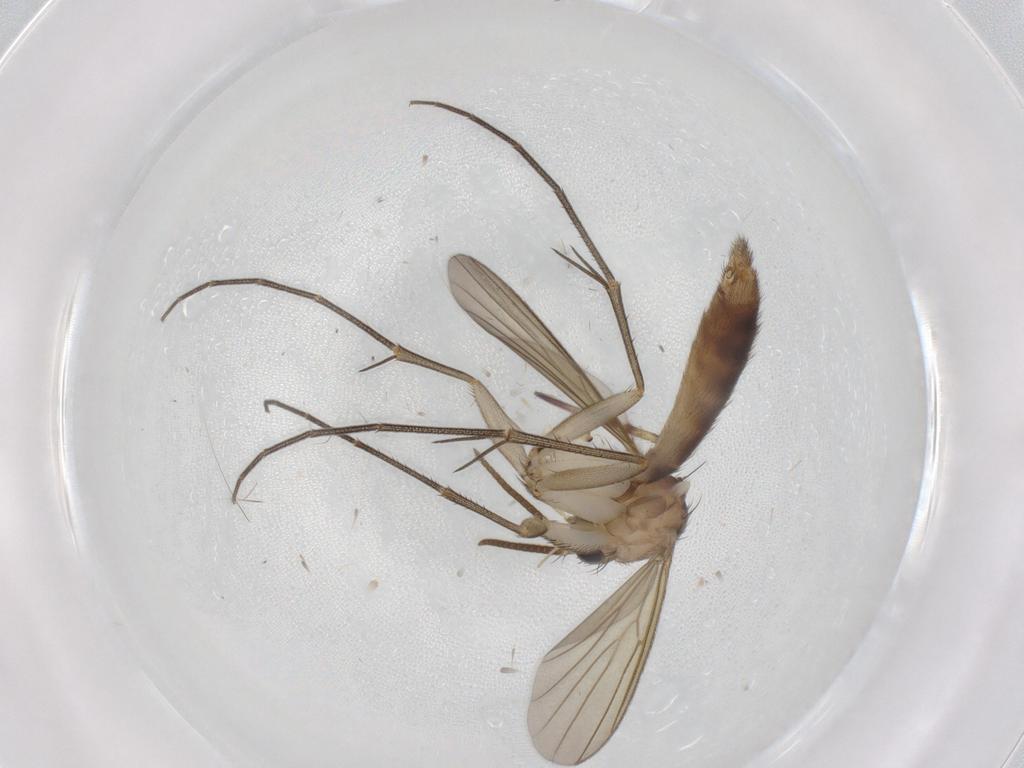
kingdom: Animalia
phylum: Arthropoda
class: Insecta
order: Diptera
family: Mycetophilidae
